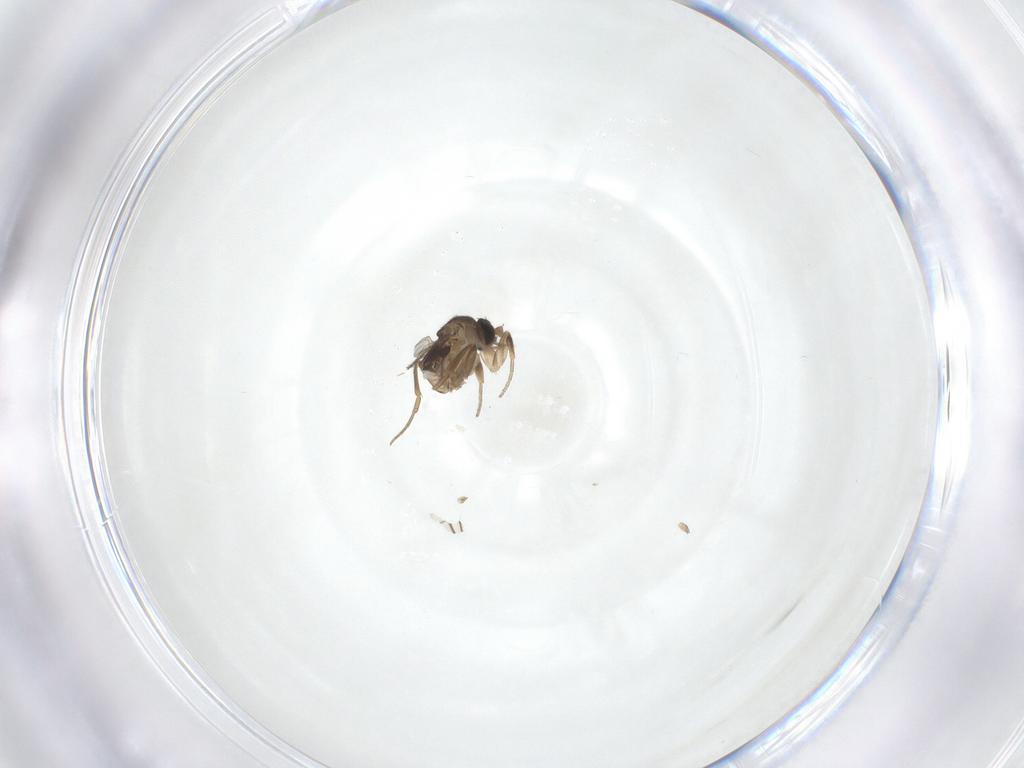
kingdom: Animalia
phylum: Arthropoda
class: Insecta
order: Diptera
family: Phoridae
